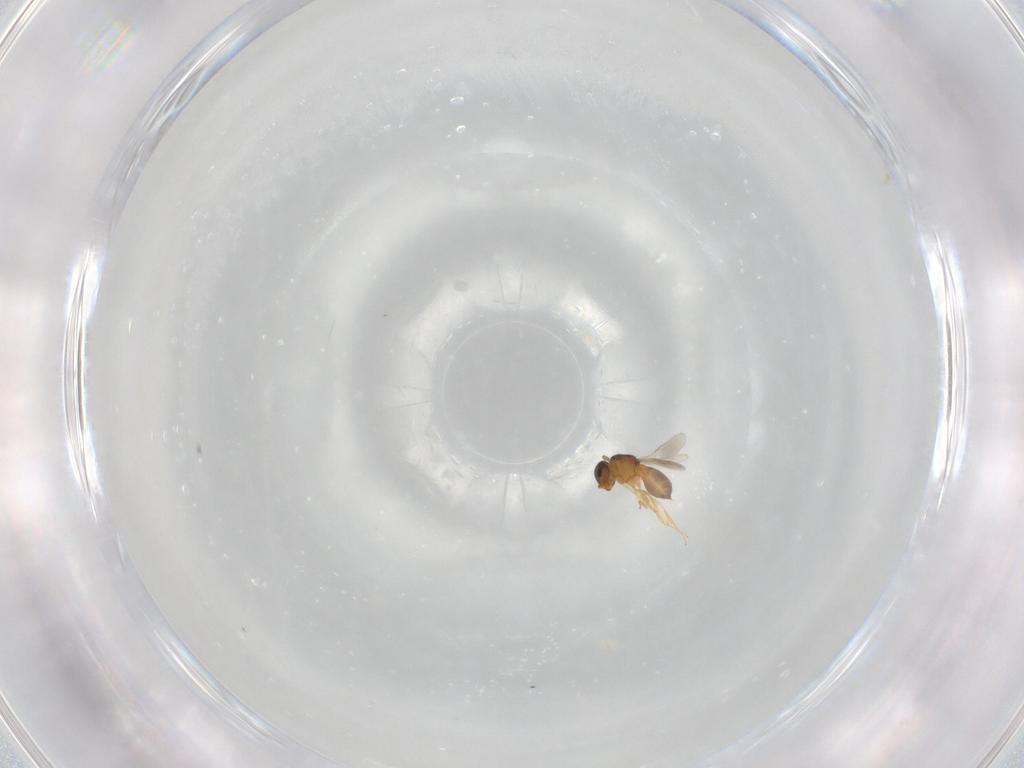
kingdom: Animalia
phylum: Arthropoda
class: Insecta
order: Hymenoptera
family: Scelionidae
